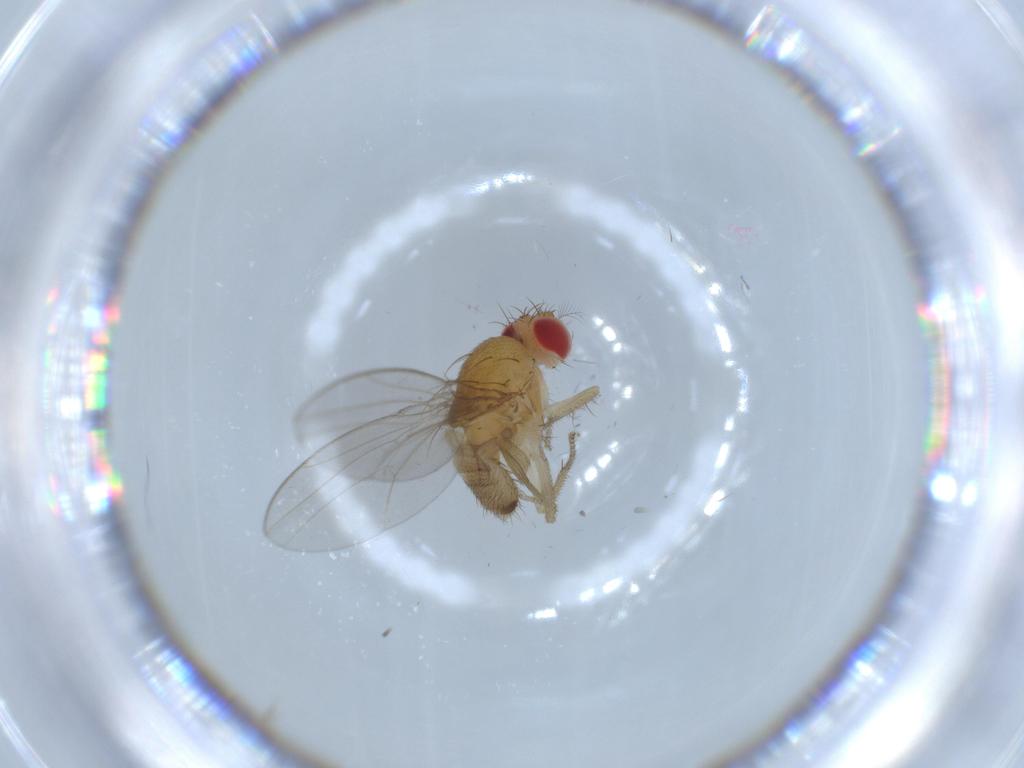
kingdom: Animalia
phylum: Arthropoda
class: Insecta
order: Diptera
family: Drosophilidae
